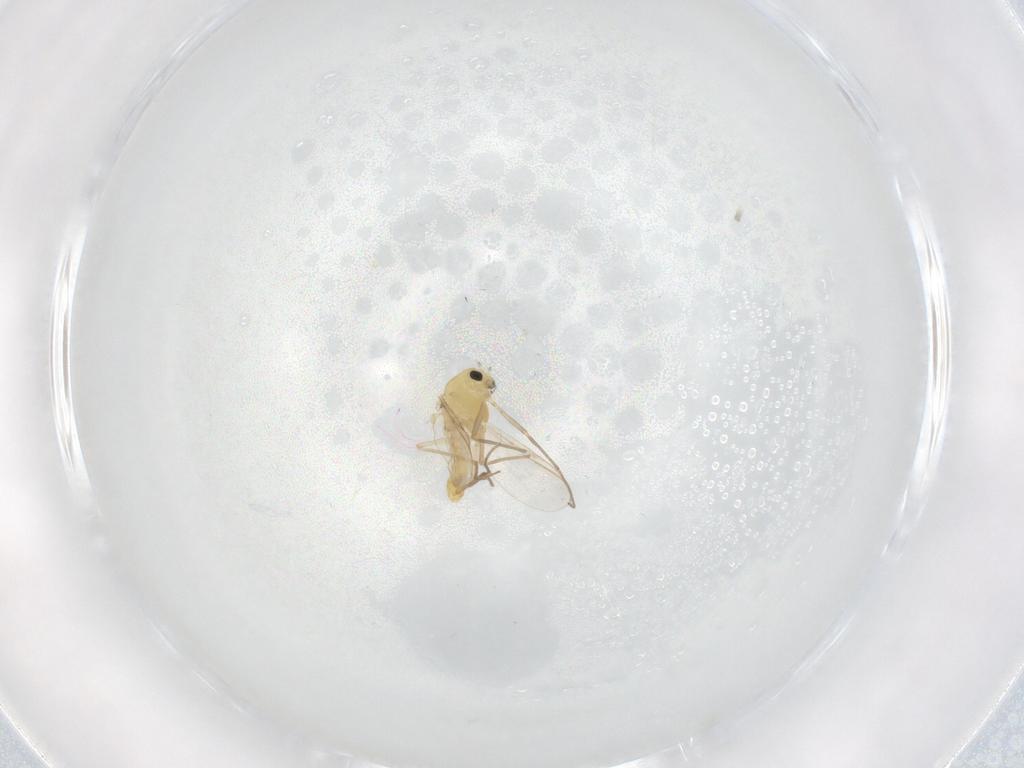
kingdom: Animalia
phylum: Arthropoda
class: Insecta
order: Diptera
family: Chironomidae
